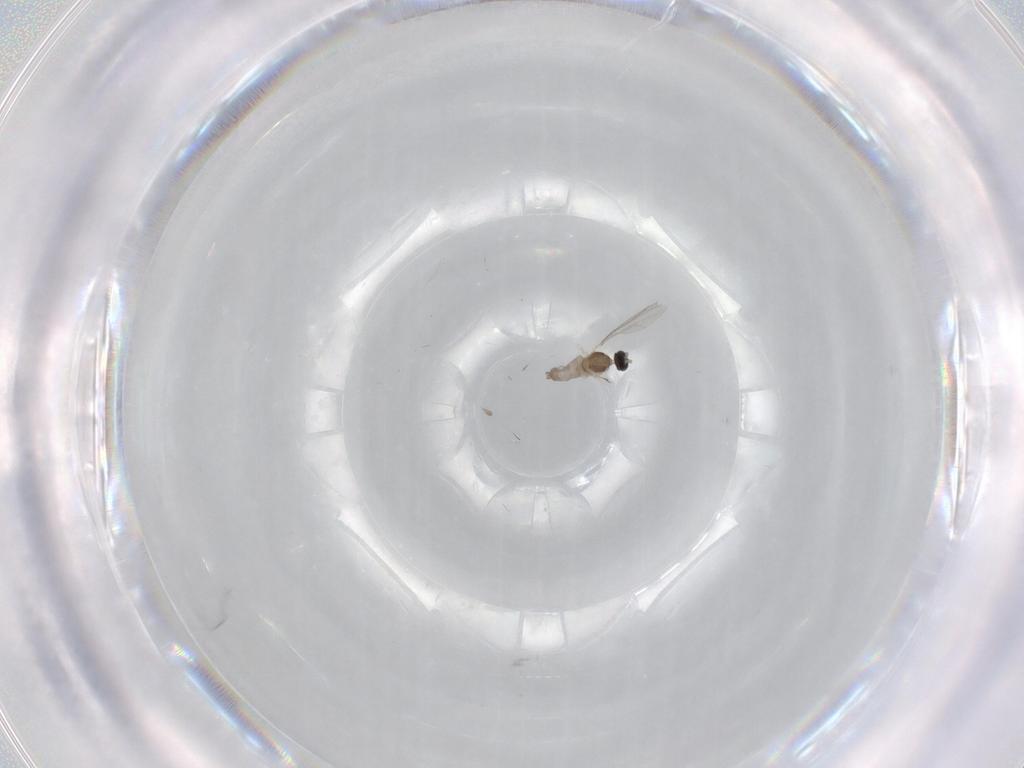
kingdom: Animalia
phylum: Arthropoda
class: Insecta
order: Diptera
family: Cecidomyiidae
